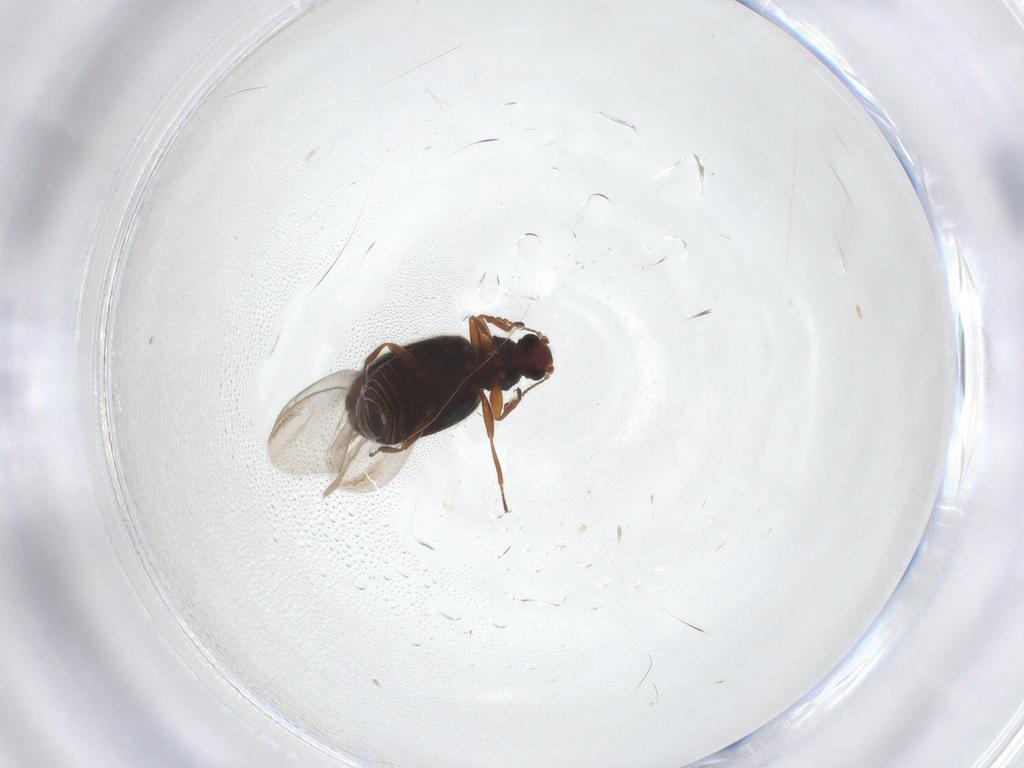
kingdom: Animalia
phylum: Arthropoda
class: Insecta
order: Coleoptera
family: Latridiidae
